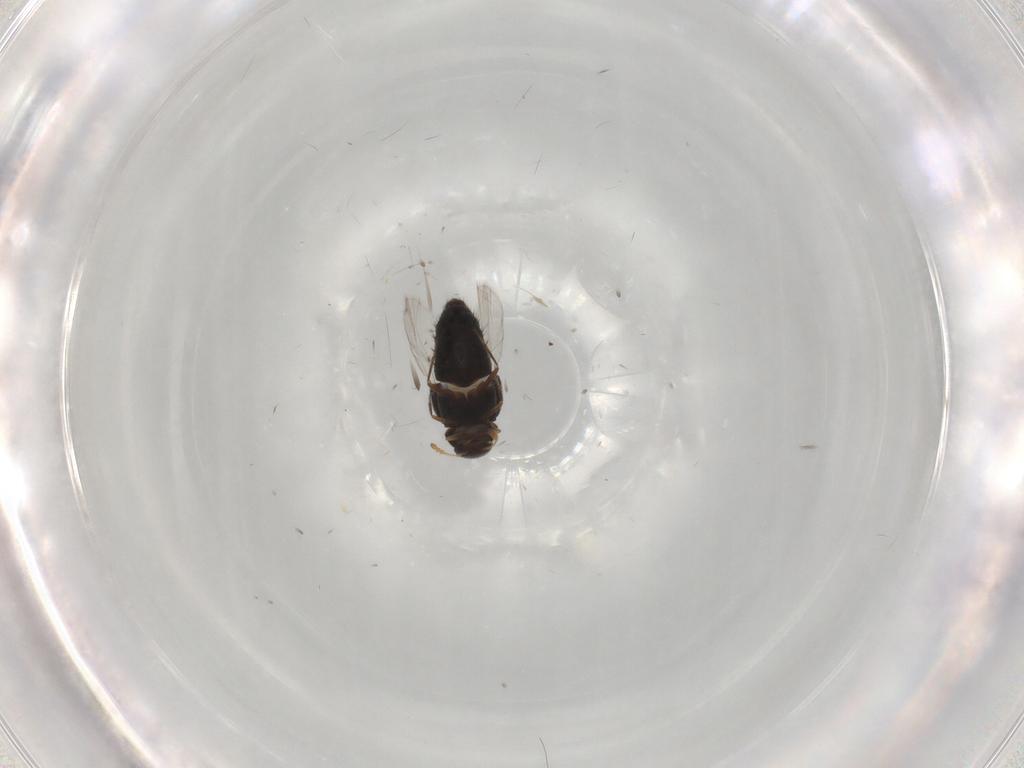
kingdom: Animalia
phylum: Arthropoda
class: Insecta
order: Coleoptera
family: Staphylinidae
